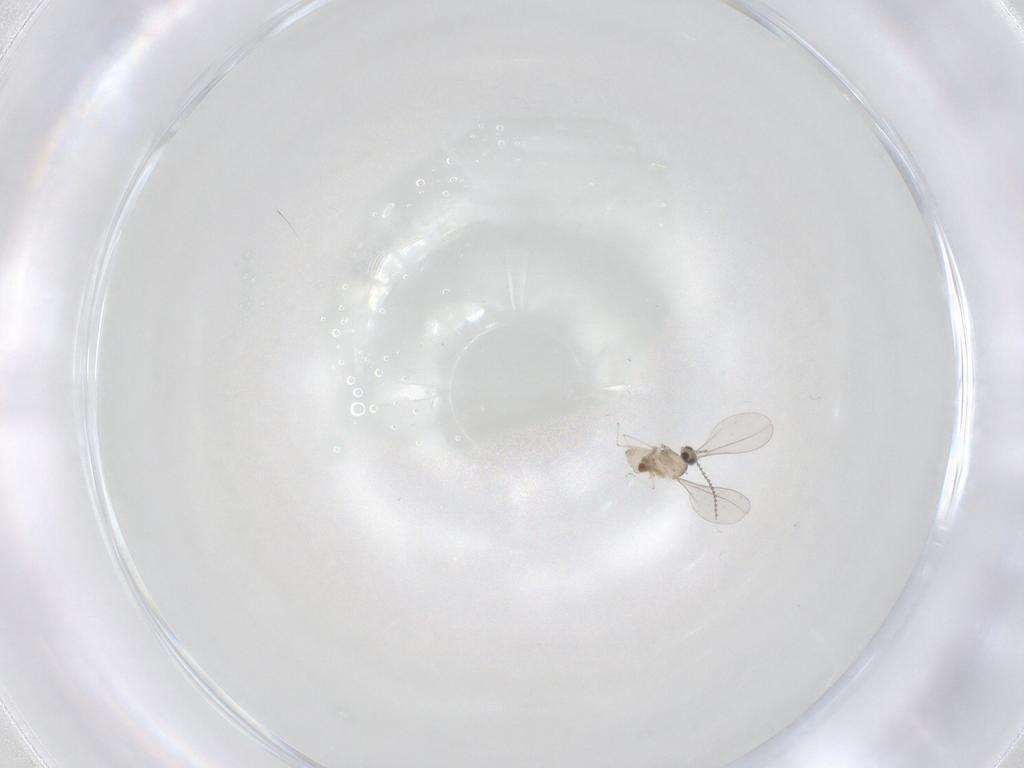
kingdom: Animalia
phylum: Arthropoda
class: Insecta
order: Diptera
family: Cecidomyiidae
